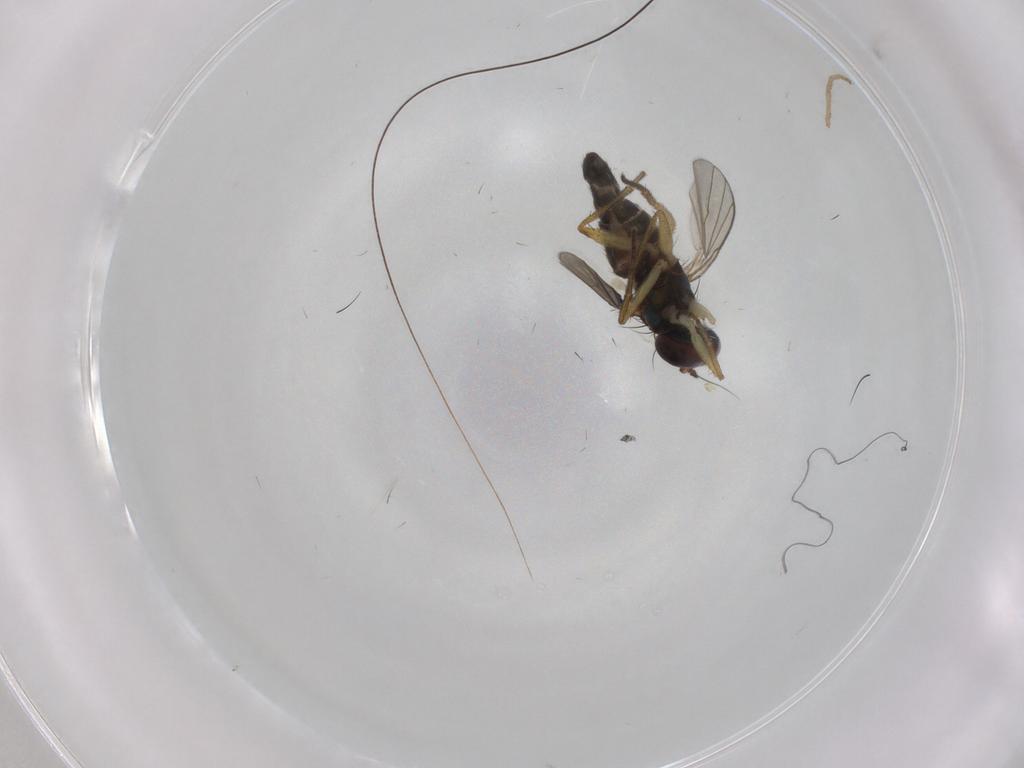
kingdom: Animalia
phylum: Arthropoda
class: Insecta
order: Diptera
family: Chironomidae
